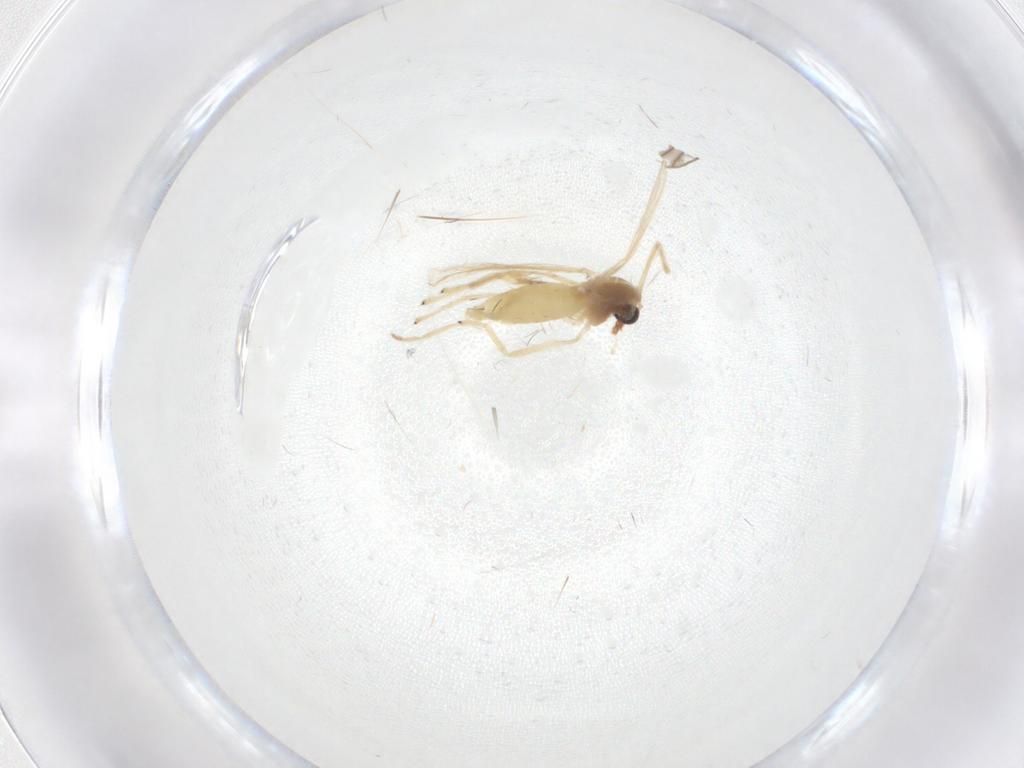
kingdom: Animalia
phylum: Arthropoda
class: Insecta
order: Diptera
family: Chironomidae
